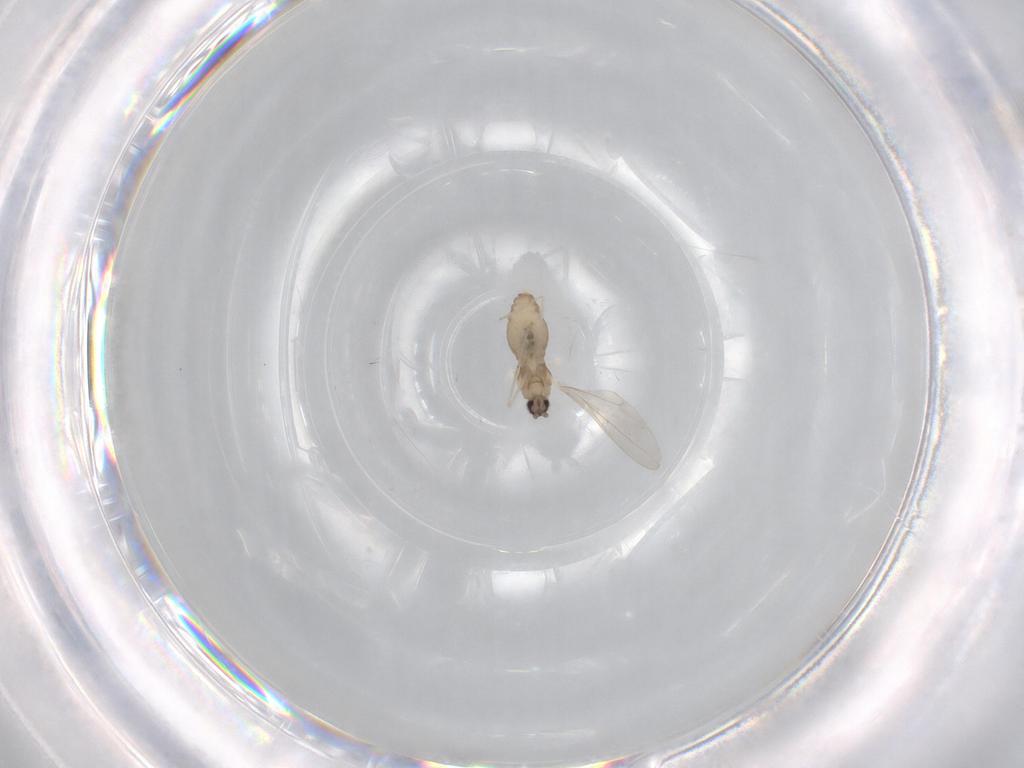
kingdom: Animalia
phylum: Arthropoda
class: Insecta
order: Diptera
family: Cecidomyiidae
